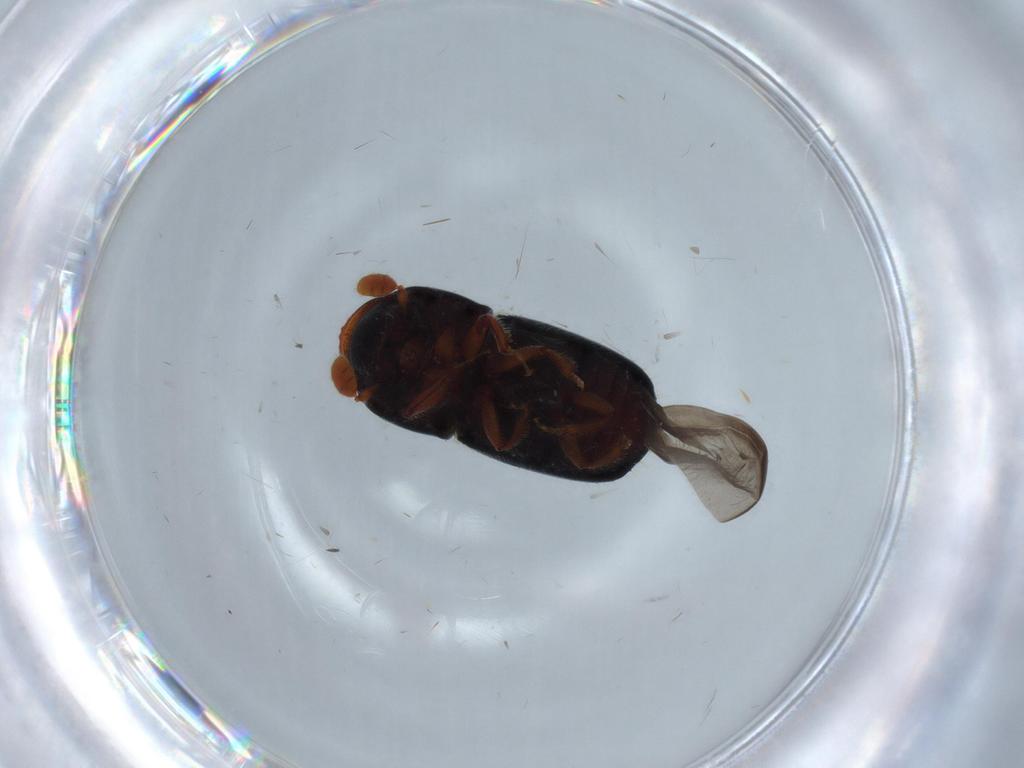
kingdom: Animalia
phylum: Arthropoda
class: Insecta
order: Coleoptera
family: Curculionidae
